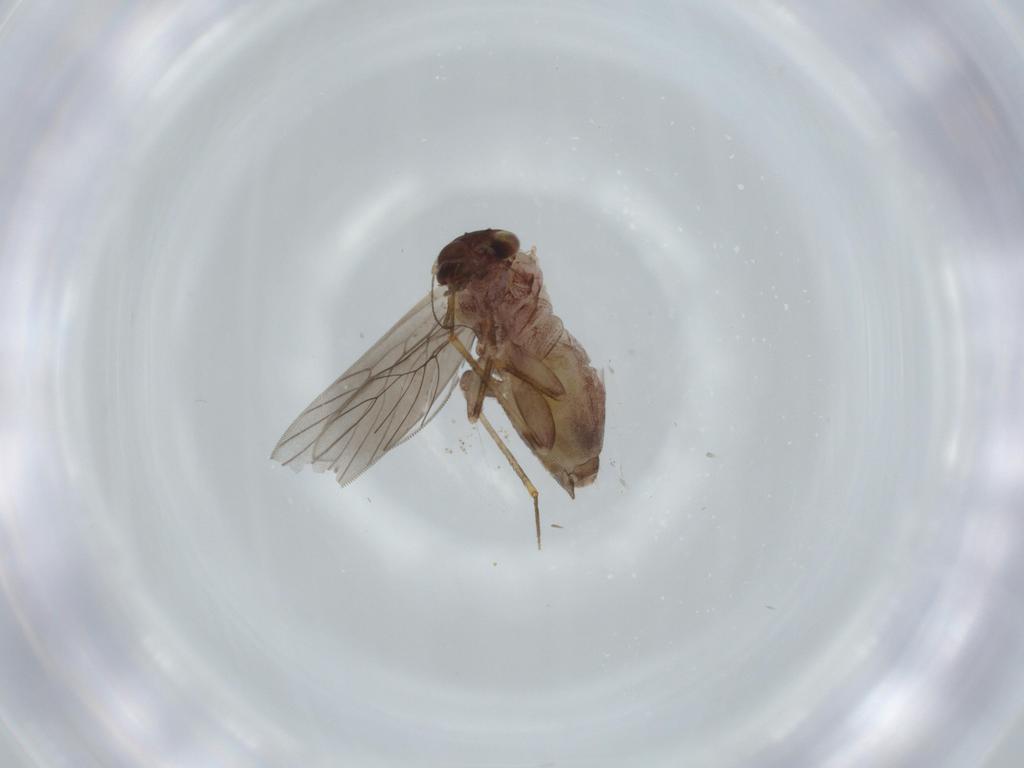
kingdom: Animalia
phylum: Arthropoda
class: Insecta
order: Psocodea
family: Lepidopsocidae
